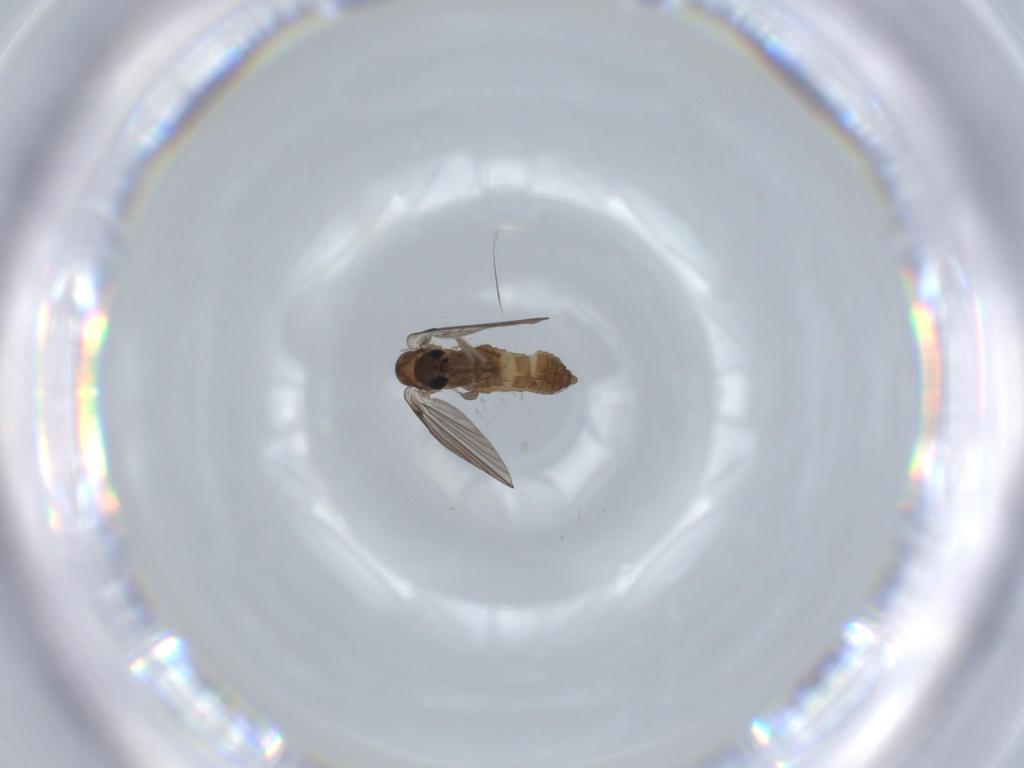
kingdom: Animalia
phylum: Arthropoda
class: Insecta
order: Diptera
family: Psychodidae
